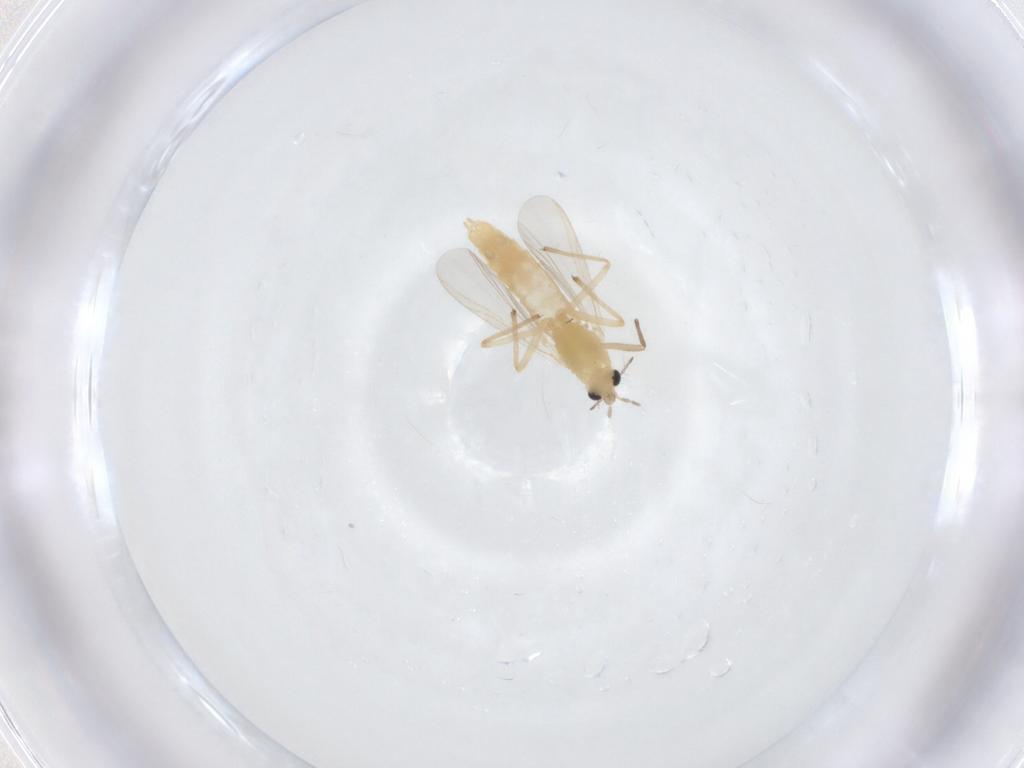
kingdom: Animalia
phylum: Arthropoda
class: Insecta
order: Diptera
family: Chironomidae
